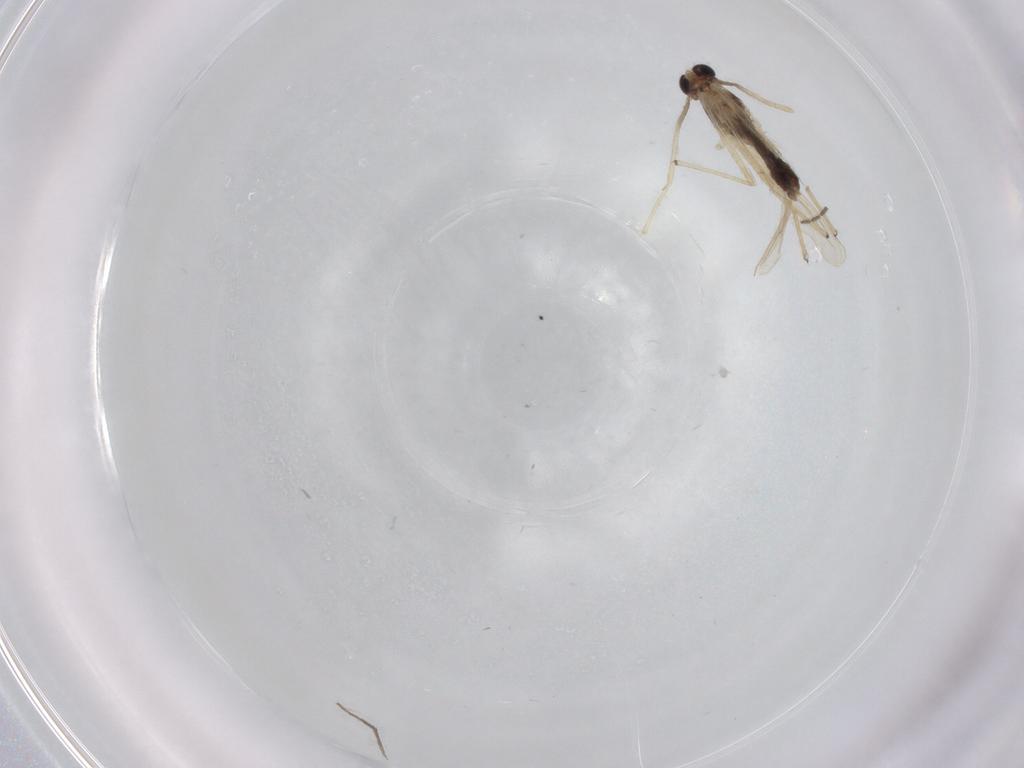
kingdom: Animalia
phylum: Arthropoda
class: Insecta
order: Diptera
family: Chironomidae
